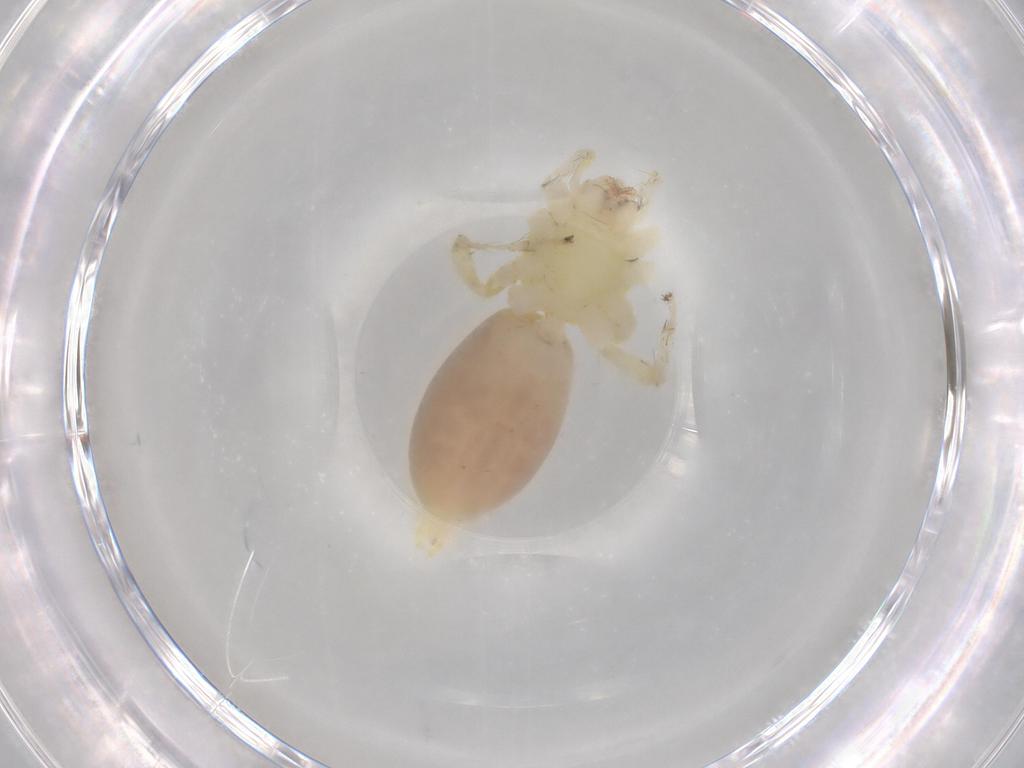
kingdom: Animalia
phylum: Arthropoda
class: Arachnida
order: Araneae
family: Anyphaenidae
